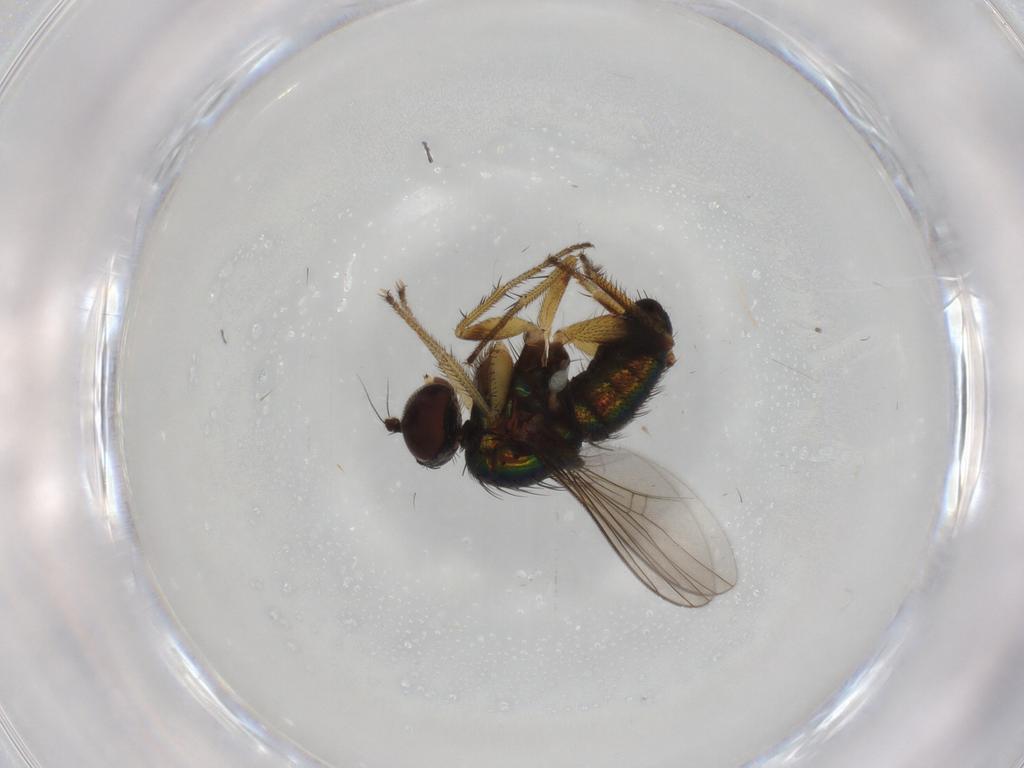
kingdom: Animalia
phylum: Arthropoda
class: Insecta
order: Diptera
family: Dolichopodidae
